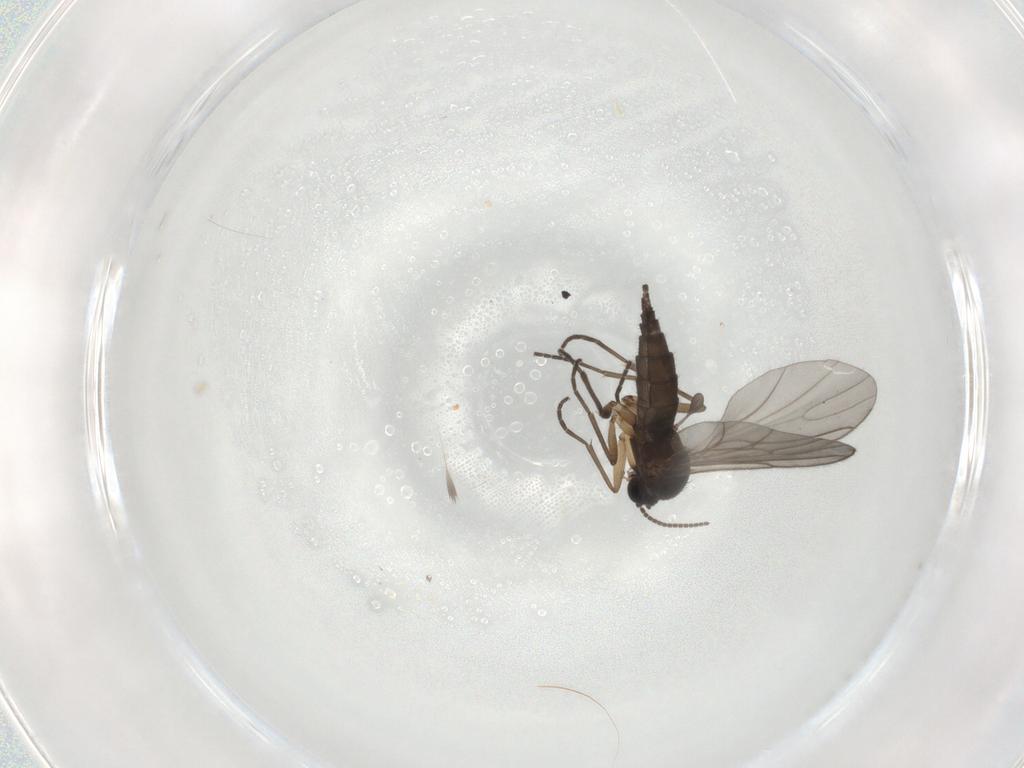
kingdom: Animalia
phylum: Arthropoda
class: Insecta
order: Diptera
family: Sciaridae
